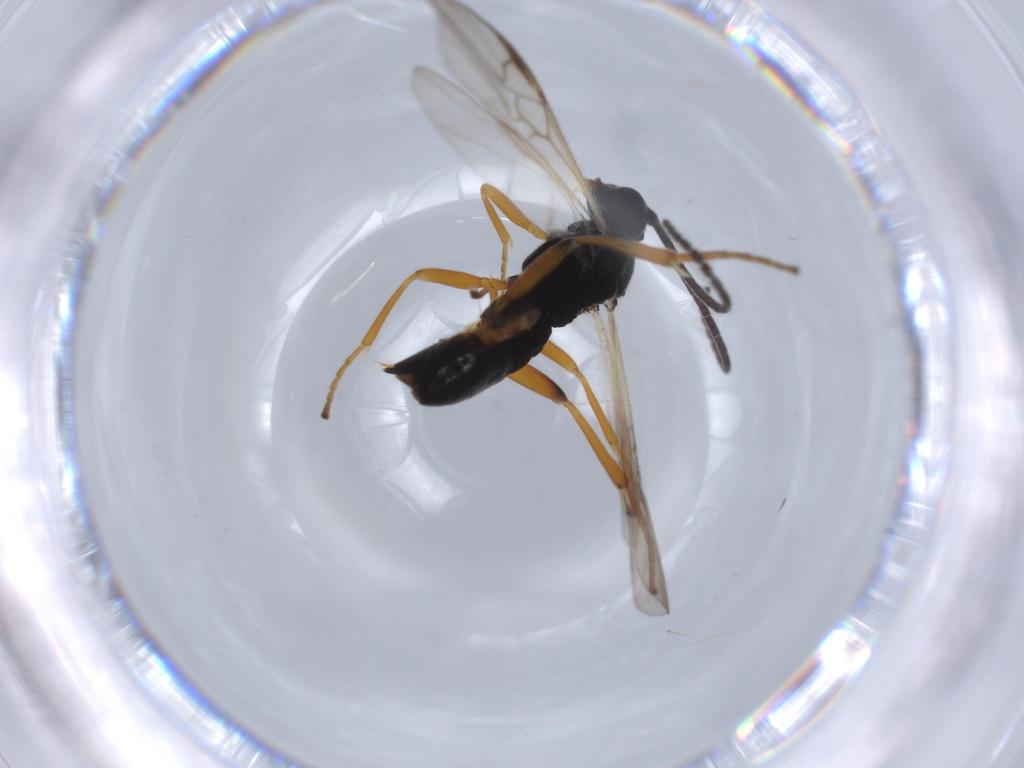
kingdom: Animalia
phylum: Arthropoda
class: Insecta
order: Hymenoptera
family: Braconidae
